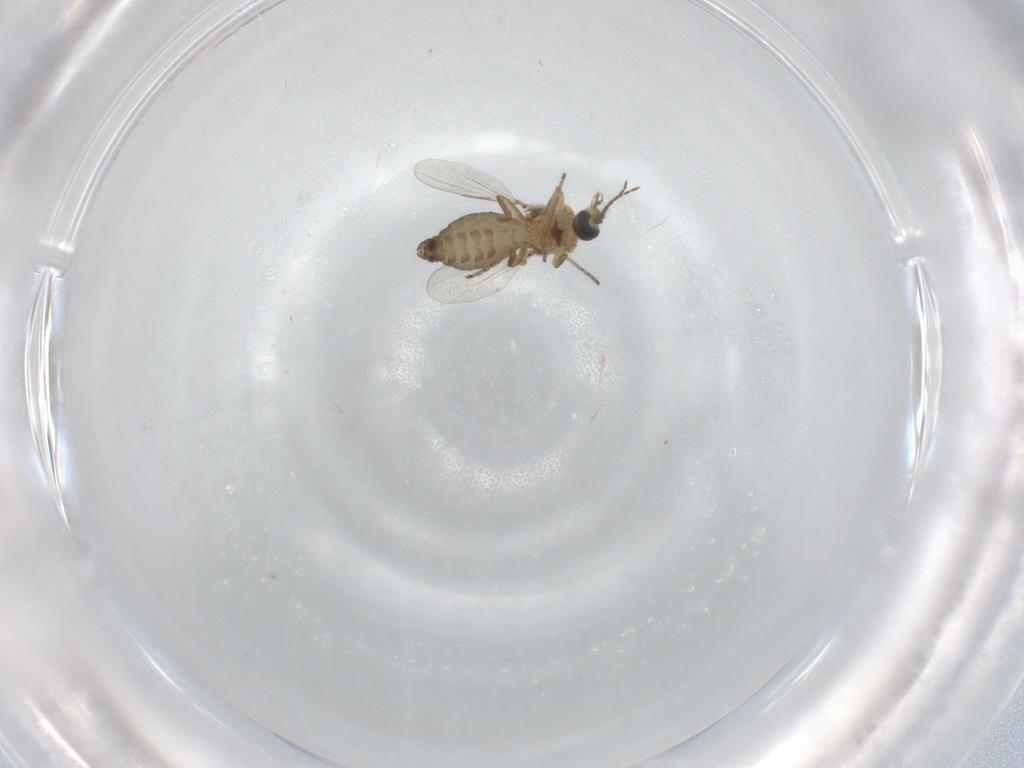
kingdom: Animalia
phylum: Arthropoda
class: Insecta
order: Diptera
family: Ceratopogonidae
